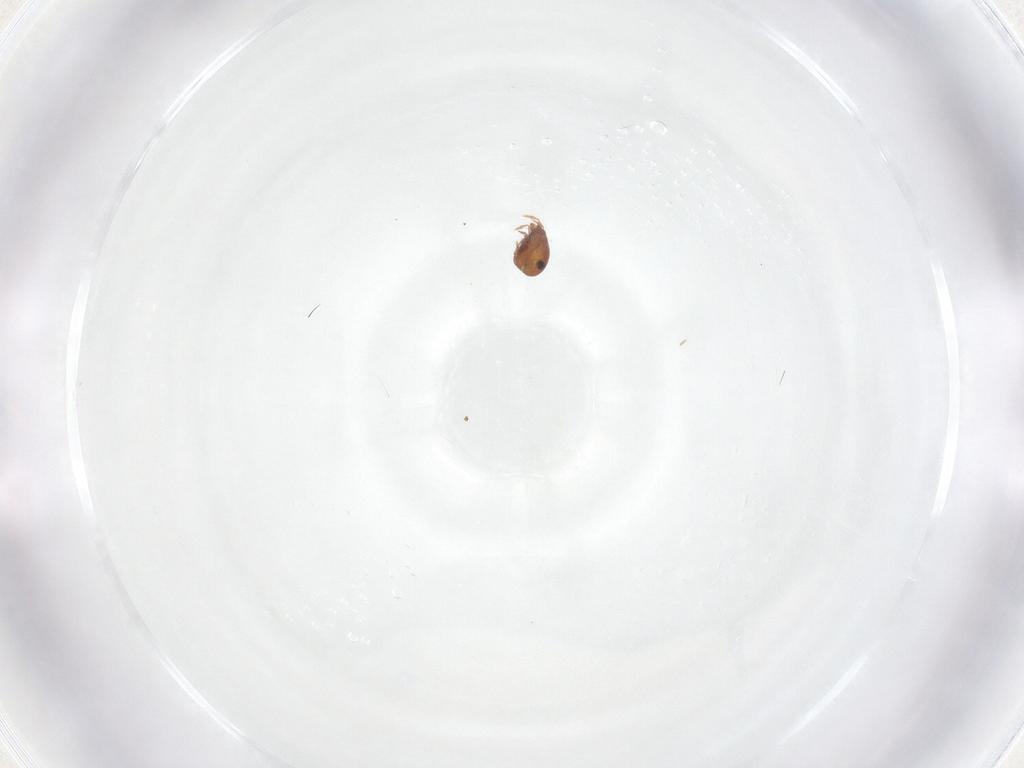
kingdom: Animalia
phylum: Arthropoda
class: Arachnida
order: Sarcoptiformes
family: Scheloribatidae
